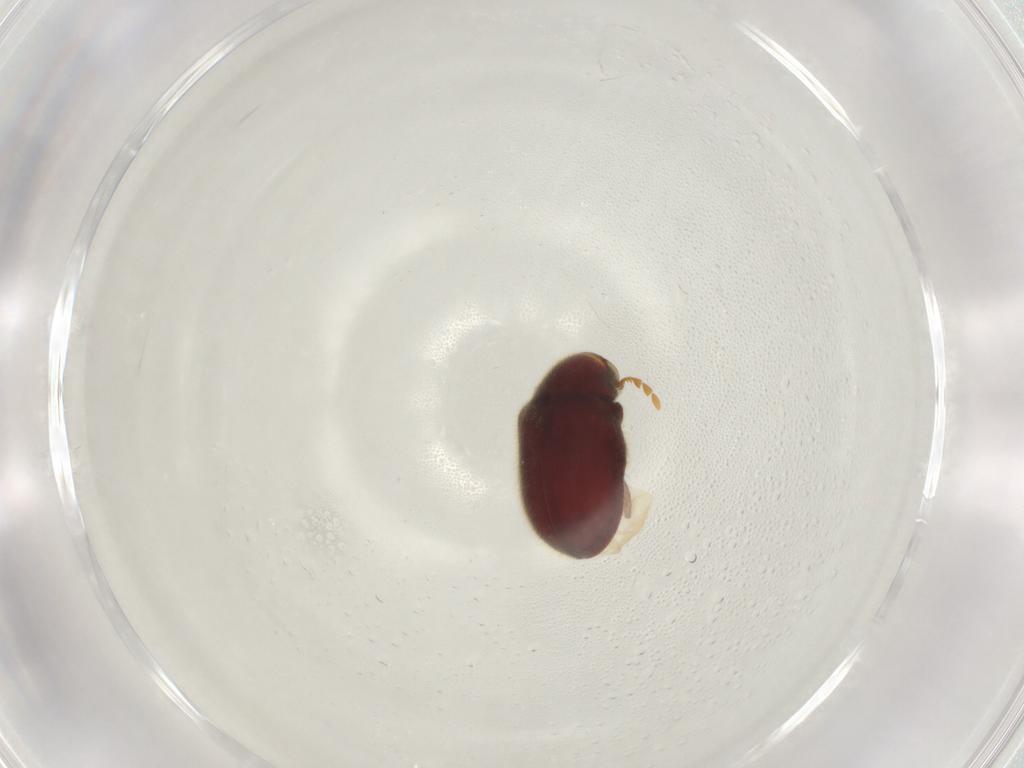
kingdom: Animalia
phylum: Arthropoda
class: Insecta
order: Coleoptera
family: Ptinidae
